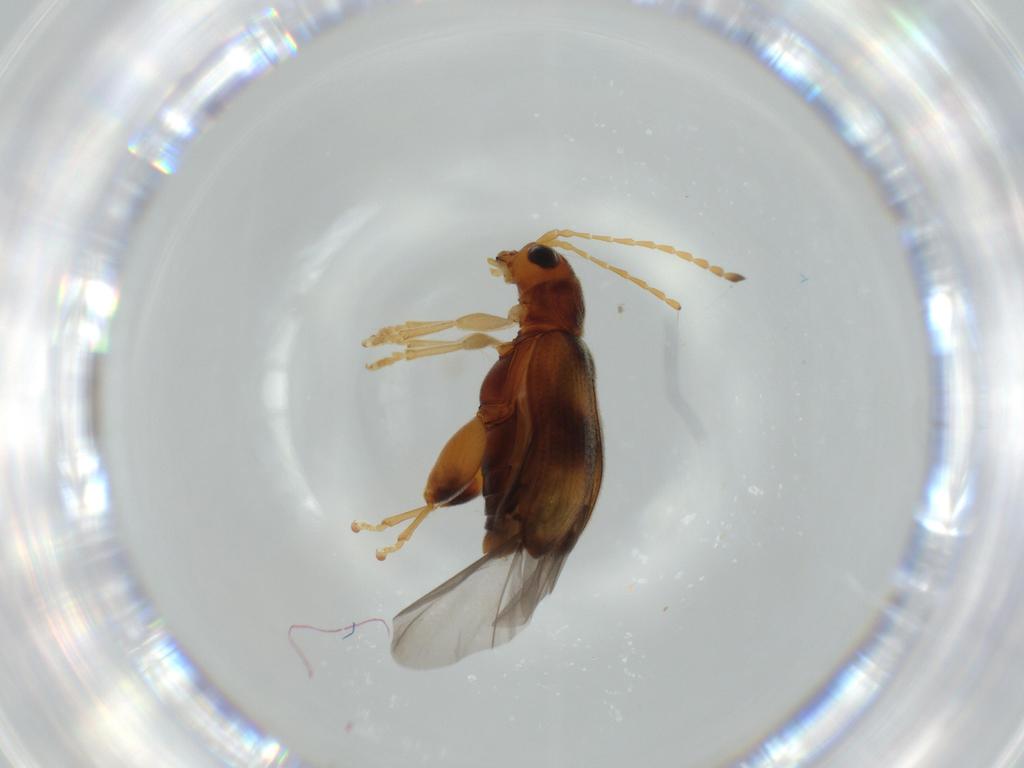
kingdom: Animalia
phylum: Arthropoda
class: Insecta
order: Coleoptera
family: Chrysomelidae
